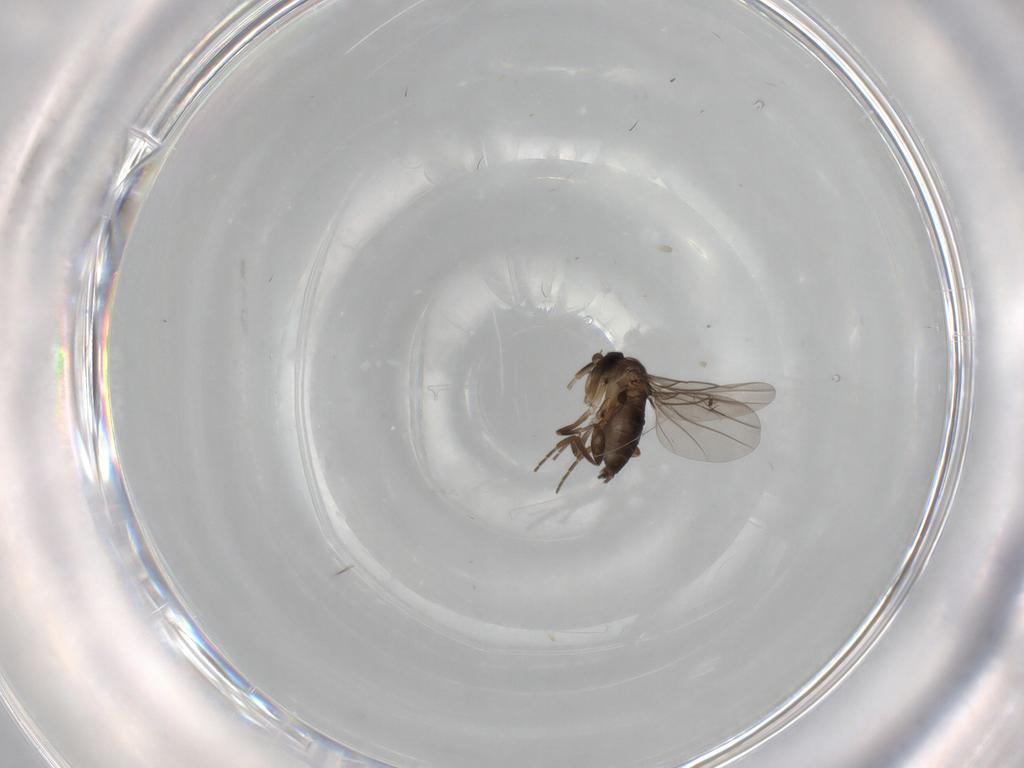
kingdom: Animalia
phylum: Arthropoda
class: Insecta
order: Diptera
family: Phoridae
